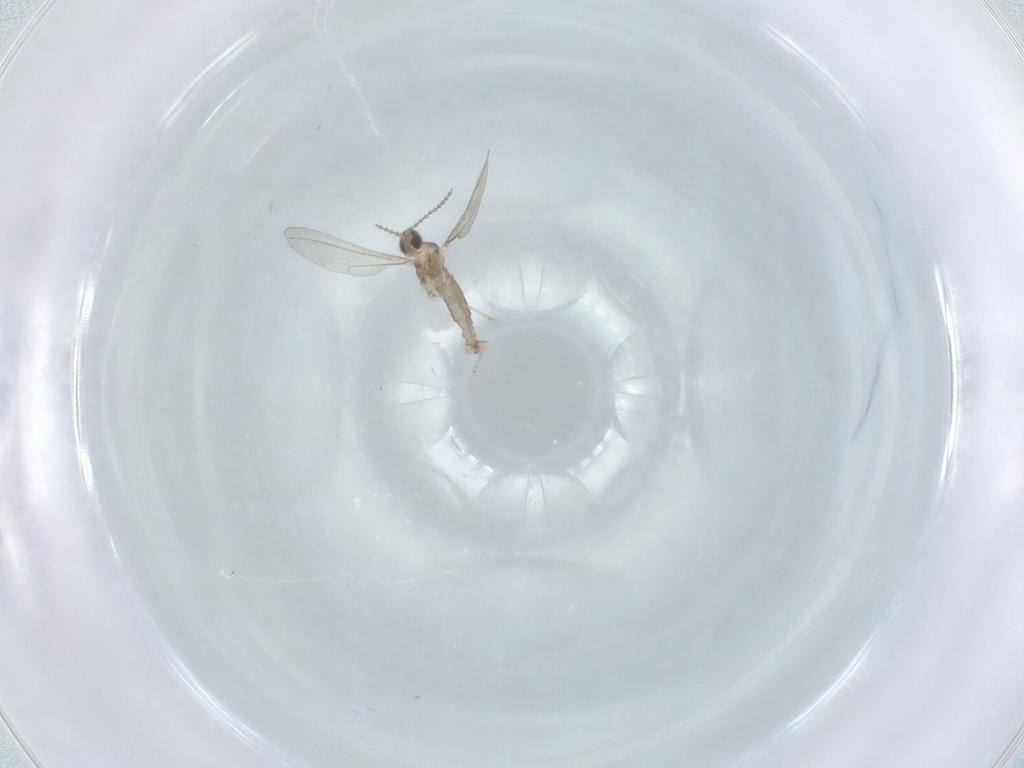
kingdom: Animalia
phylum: Arthropoda
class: Insecta
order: Diptera
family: Cecidomyiidae
